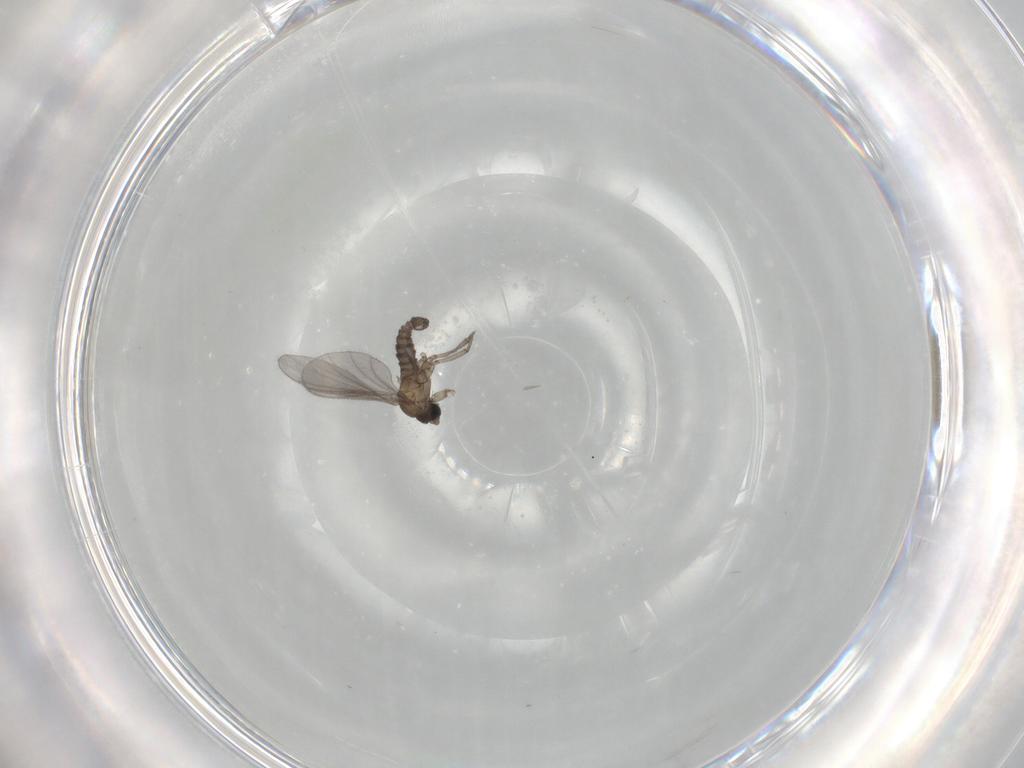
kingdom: Animalia
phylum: Arthropoda
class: Insecta
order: Diptera
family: Sciaridae
